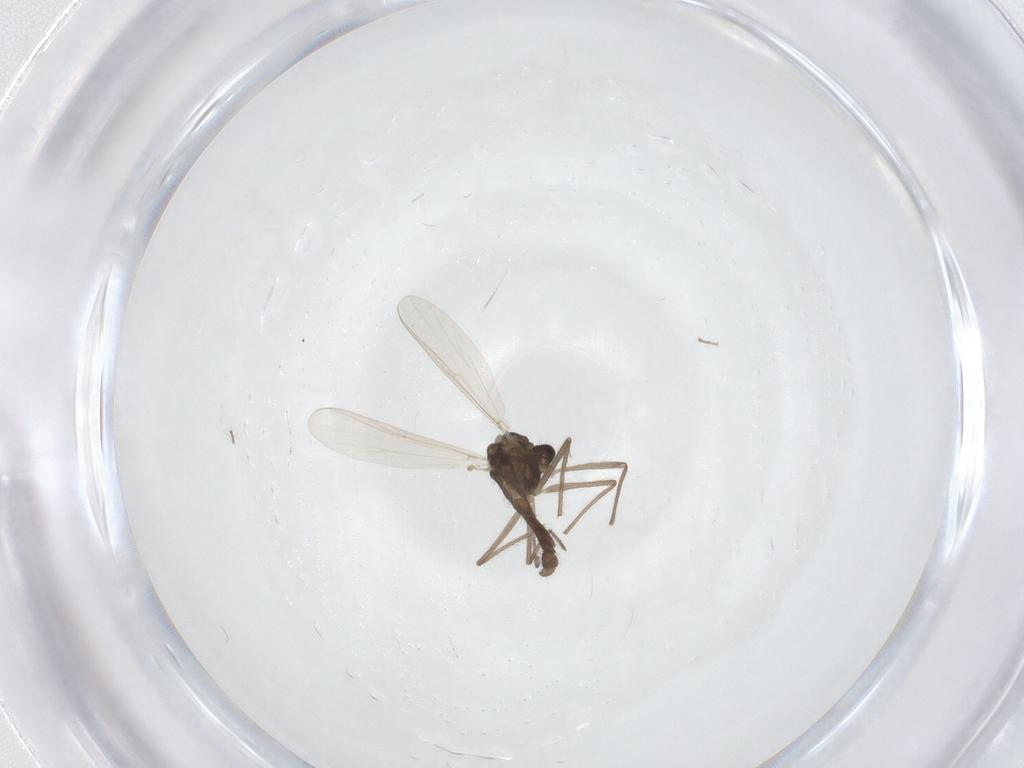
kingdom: Animalia
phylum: Arthropoda
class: Insecta
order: Diptera
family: Chironomidae
